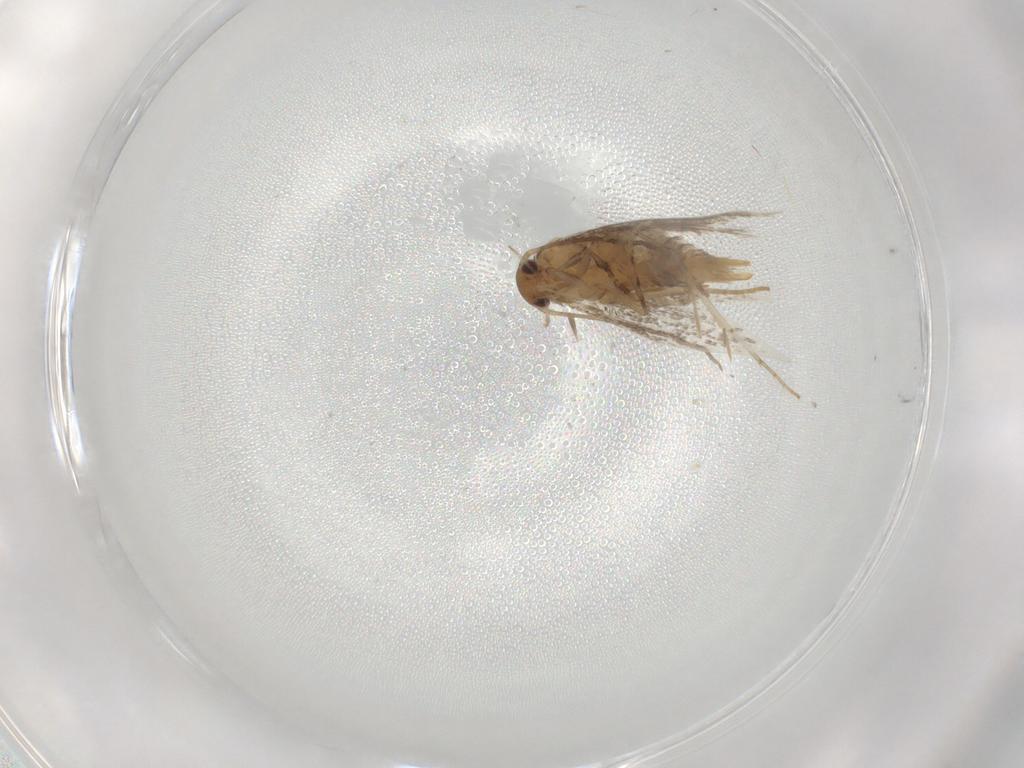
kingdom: Animalia
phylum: Arthropoda
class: Insecta
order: Lepidoptera
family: Elachistidae
